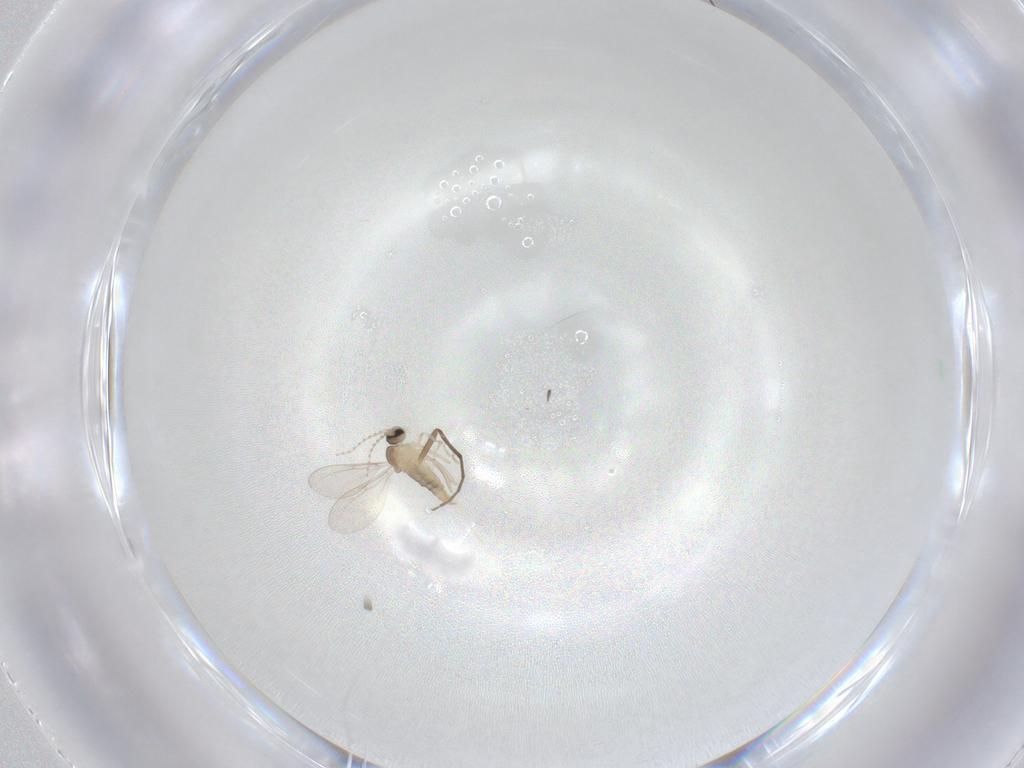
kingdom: Animalia
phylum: Arthropoda
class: Insecta
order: Diptera
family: Cecidomyiidae
